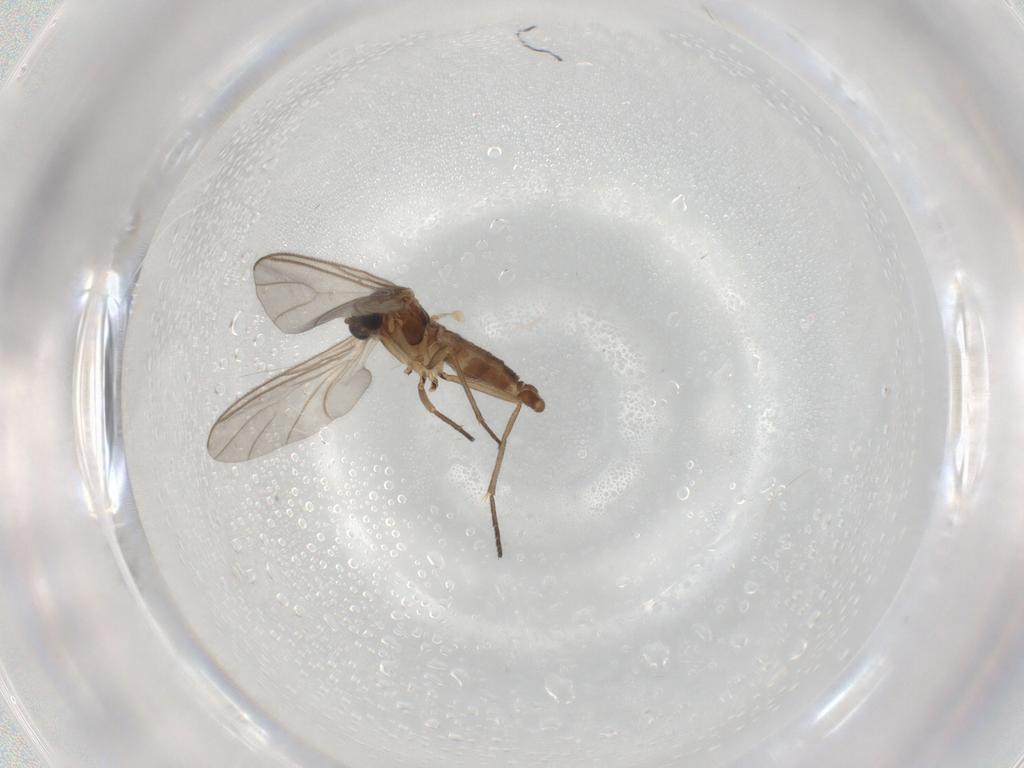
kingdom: Animalia
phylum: Arthropoda
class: Insecta
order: Diptera
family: Sciaridae
